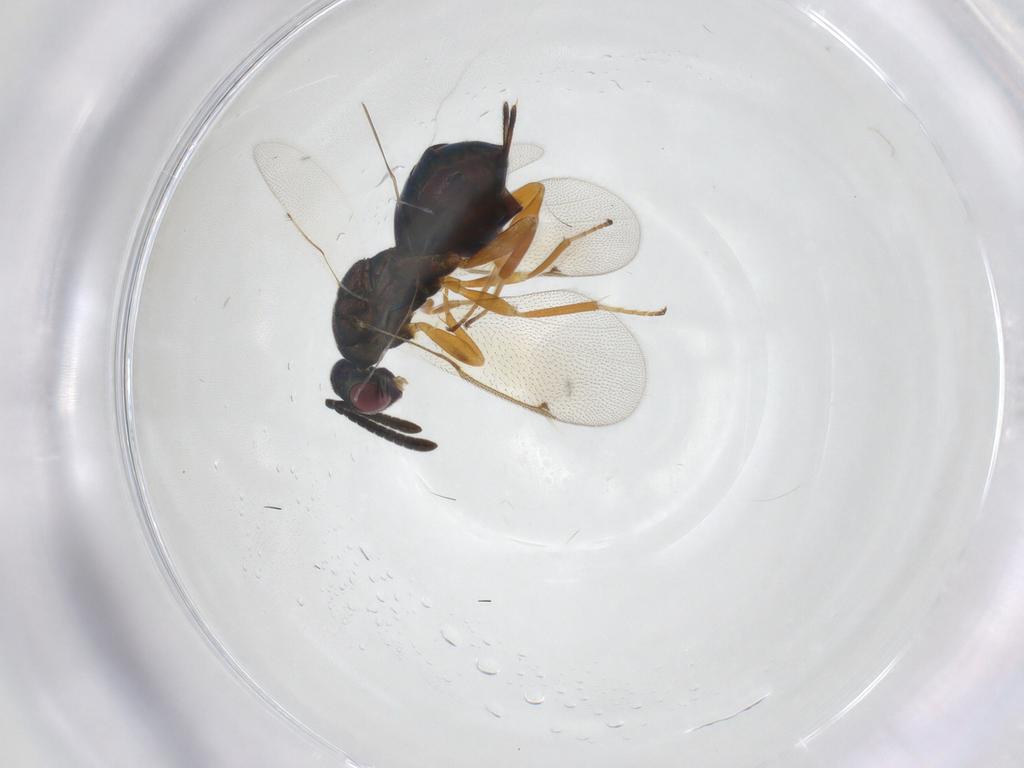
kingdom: Animalia
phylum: Arthropoda
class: Insecta
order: Hymenoptera
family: Torymidae
